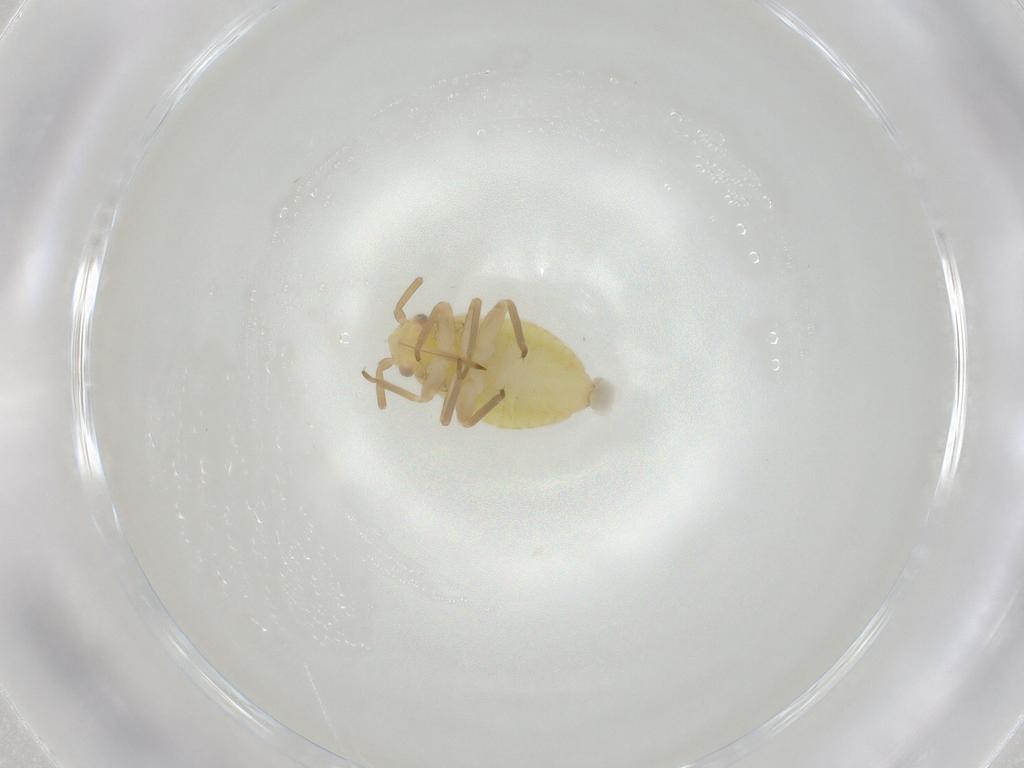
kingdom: Animalia
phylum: Arthropoda
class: Insecta
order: Hemiptera
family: Miridae
